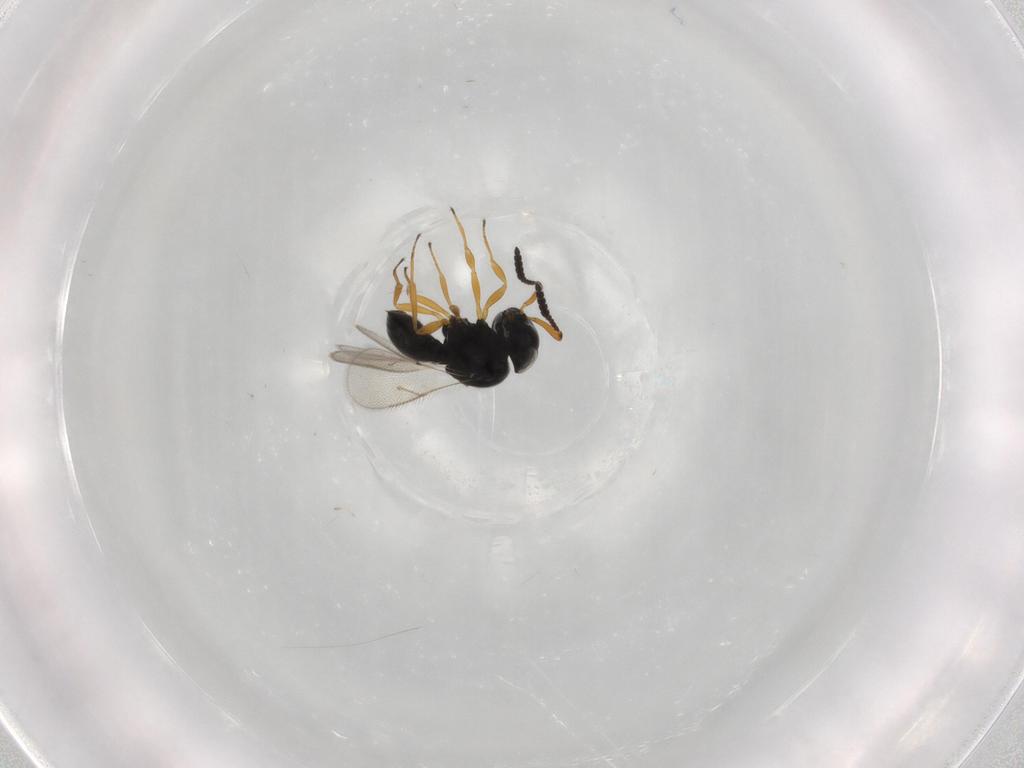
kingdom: Animalia
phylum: Arthropoda
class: Insecta
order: Hymenoptera
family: Scelionidae
